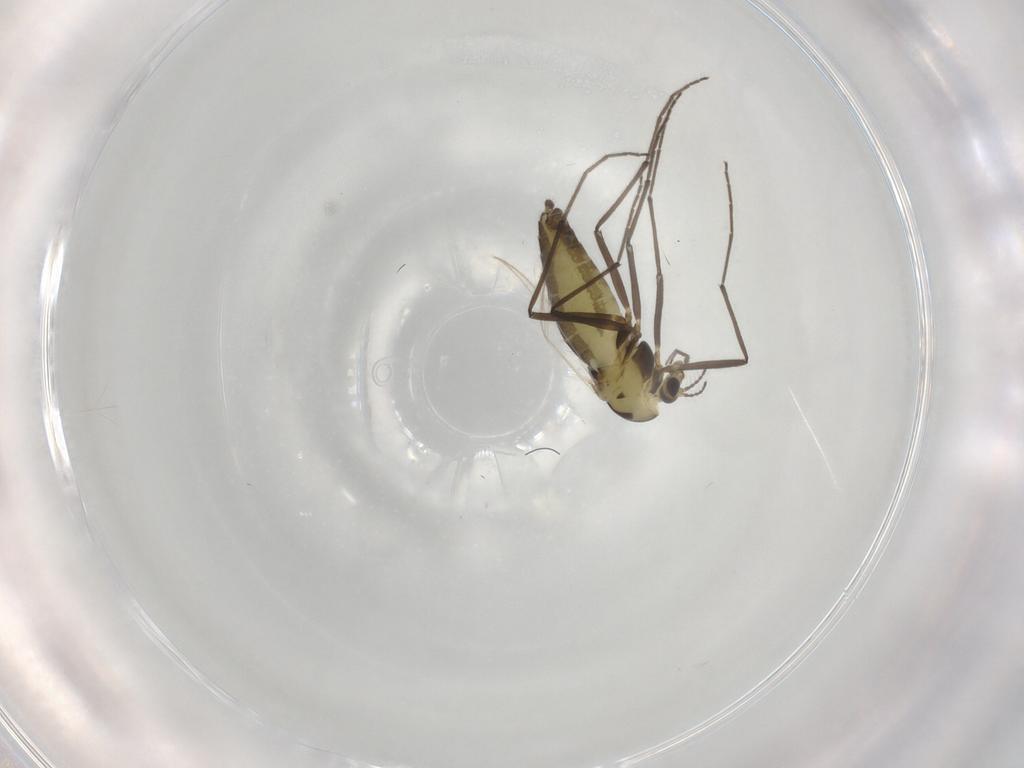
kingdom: Animalia
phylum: Arthropoda
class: Insecta
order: Diptera
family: Chironomidae
